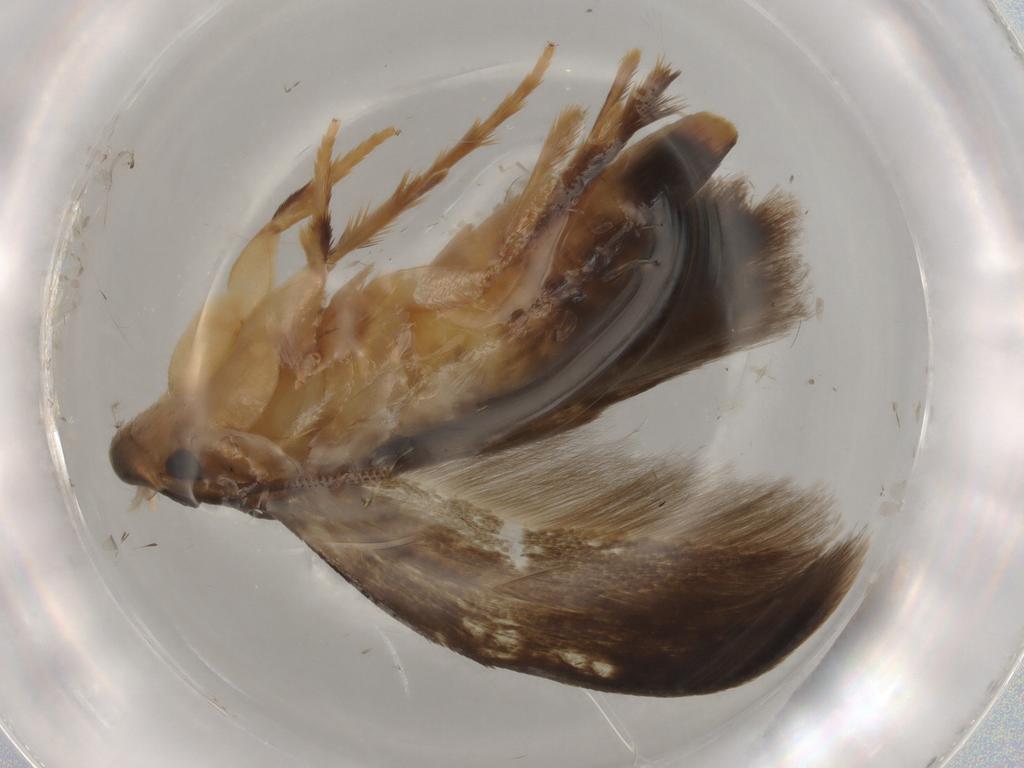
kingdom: Animalia
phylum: Arthropoda
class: Insecta
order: Lepidoptera
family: Tineidae
